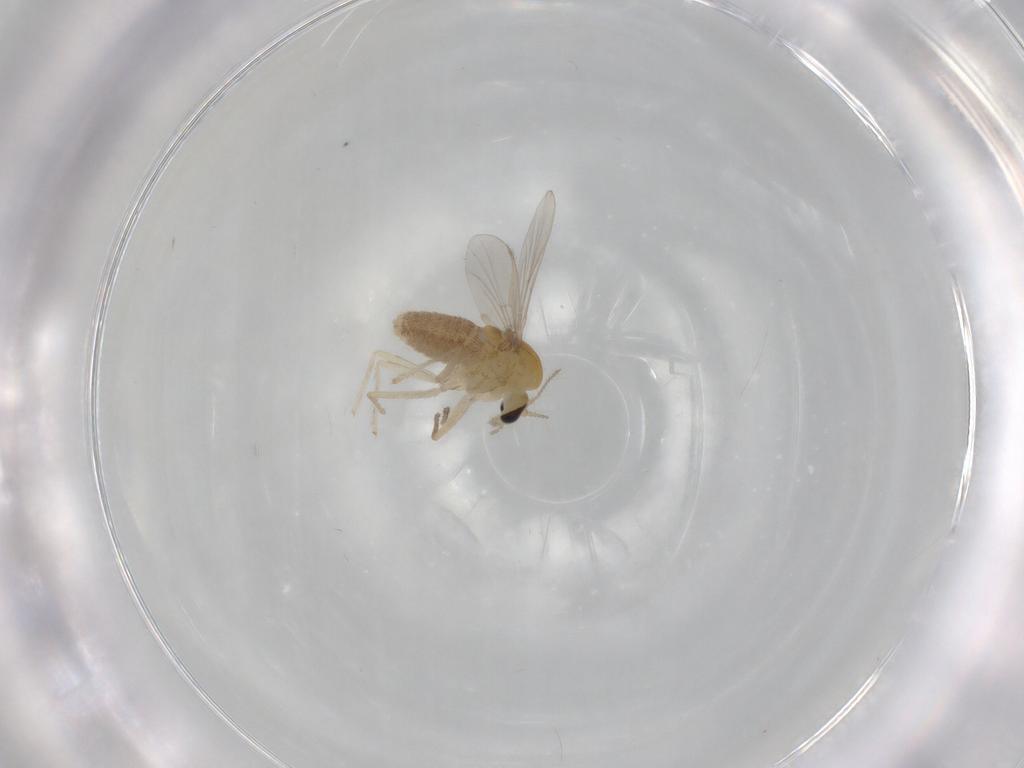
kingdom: Animalia
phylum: Arthropoda
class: Insecta
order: Diptera
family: Chironomidae
